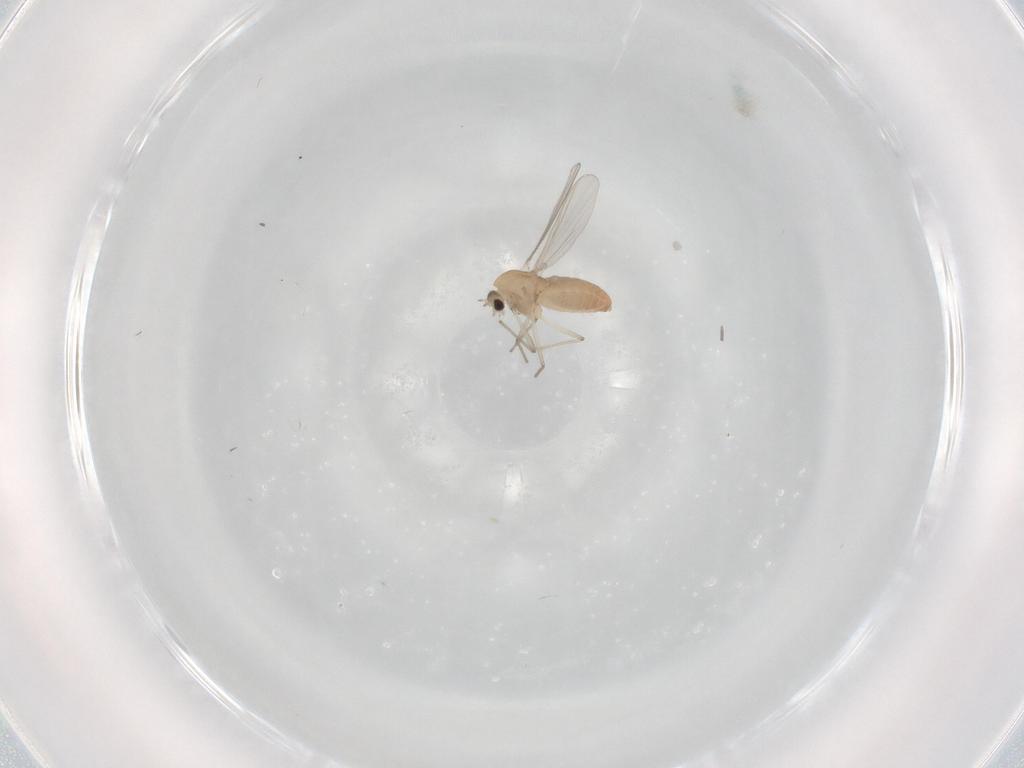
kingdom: Animalia
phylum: Arthropoda
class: Insecta
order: Diptera
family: Chironomidae
